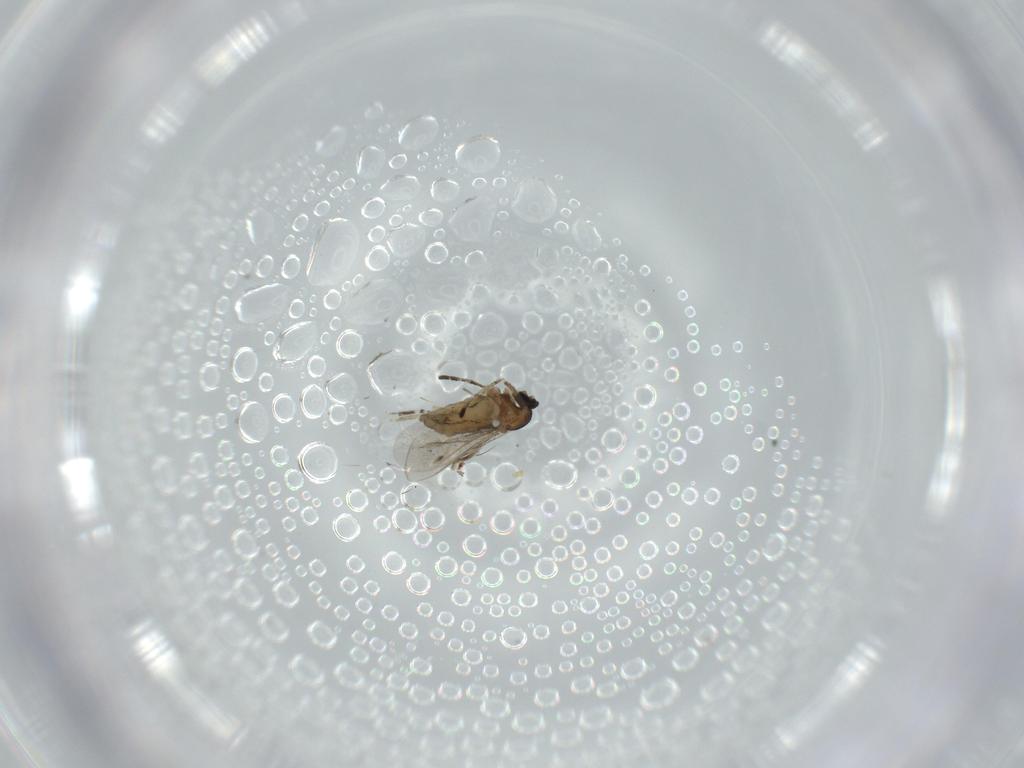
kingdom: Animalia
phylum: Arthropoda
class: Insecta
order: Diptera
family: Cecidomyiidae
